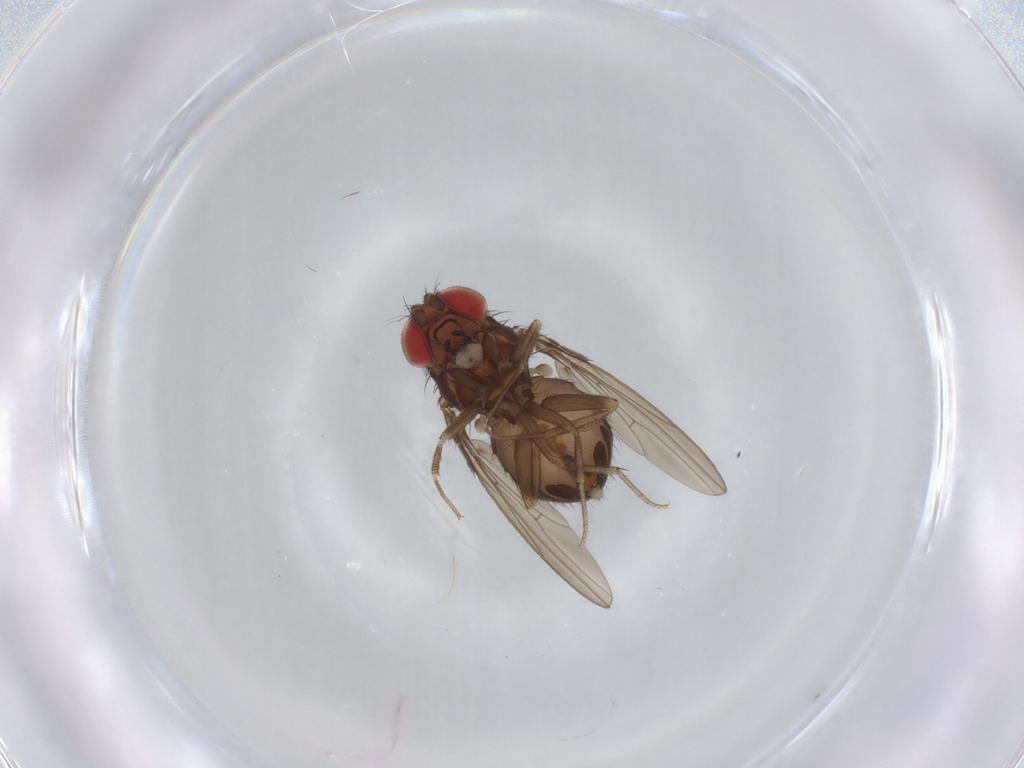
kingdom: Animalia
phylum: Arthropoda
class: Insecta
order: Diptera
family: Drosophilidae
